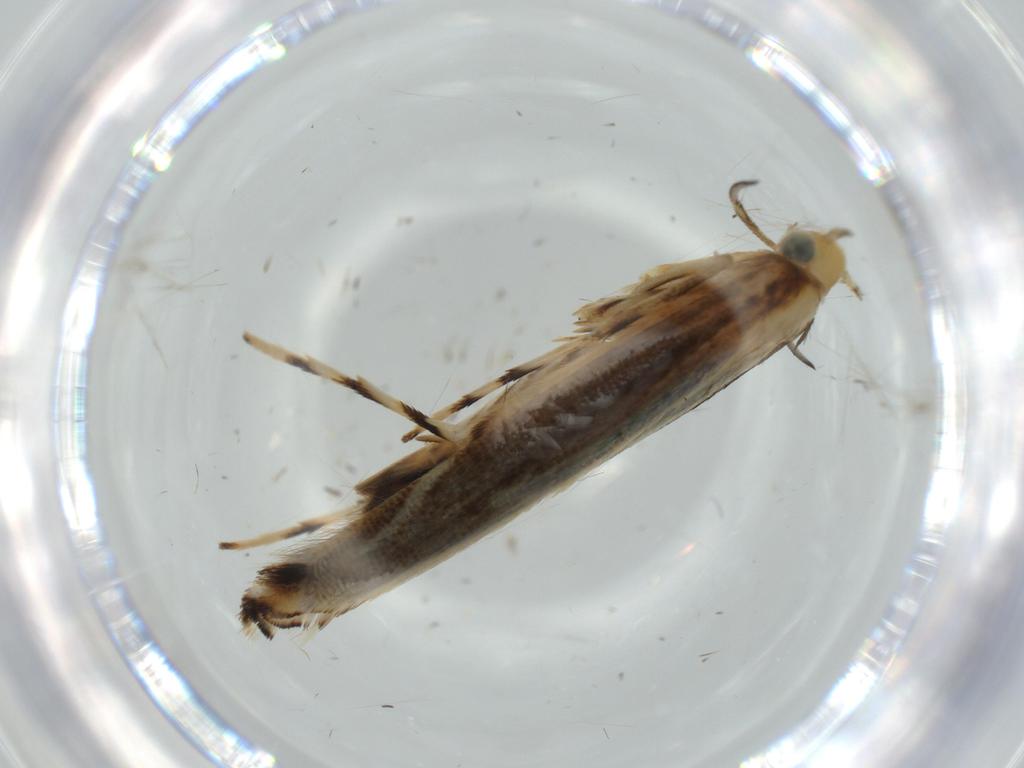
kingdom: Animalia
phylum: Arthropoda
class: Insecta
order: Lepidoptera
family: Gracillariidae
